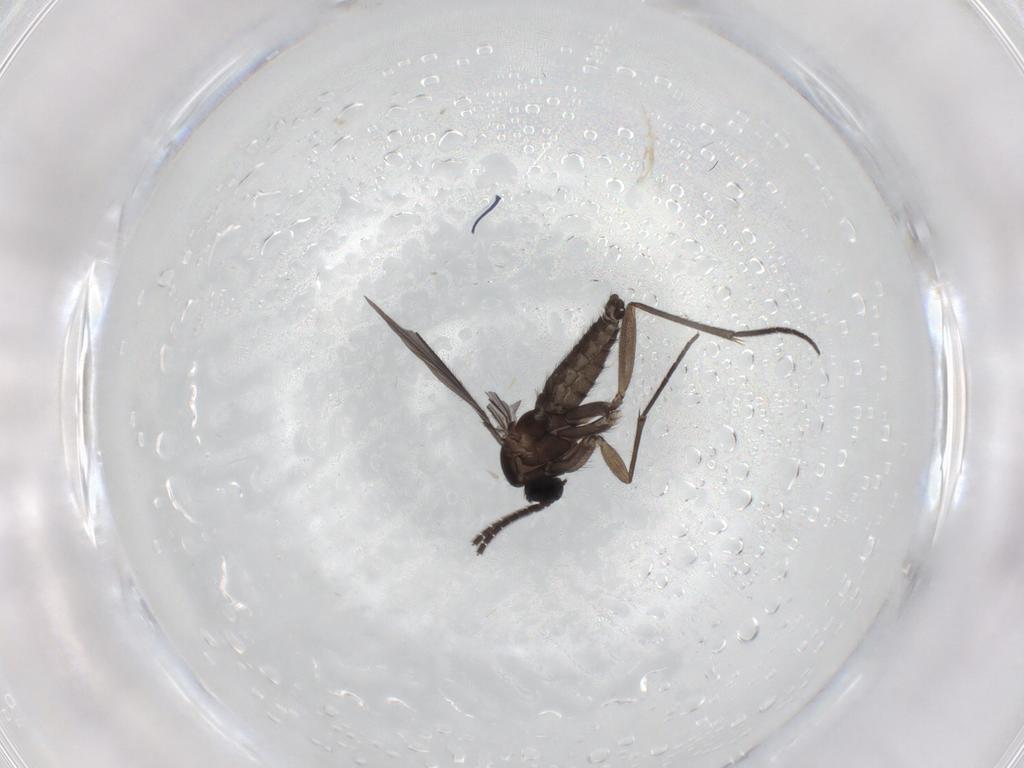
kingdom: Animalia
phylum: Arthropoda
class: Insecta
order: Diptera
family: Sciaridae
